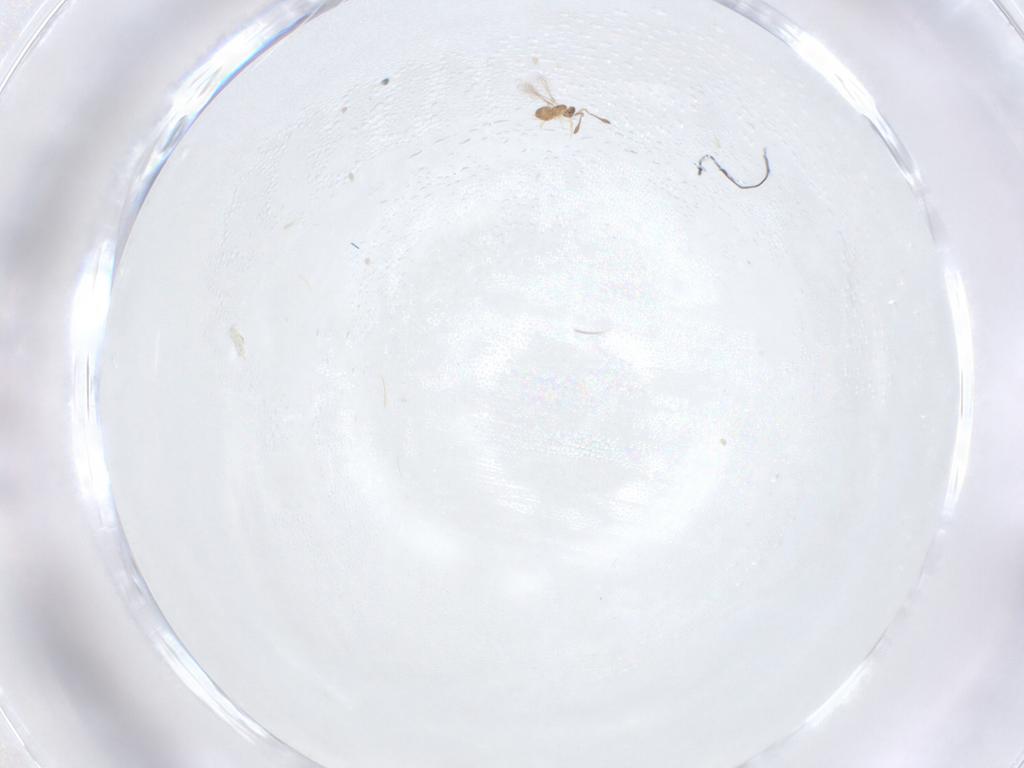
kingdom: Animalia
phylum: Arthropoda
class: Insecta
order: Hymenoptera
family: Mymaridae
